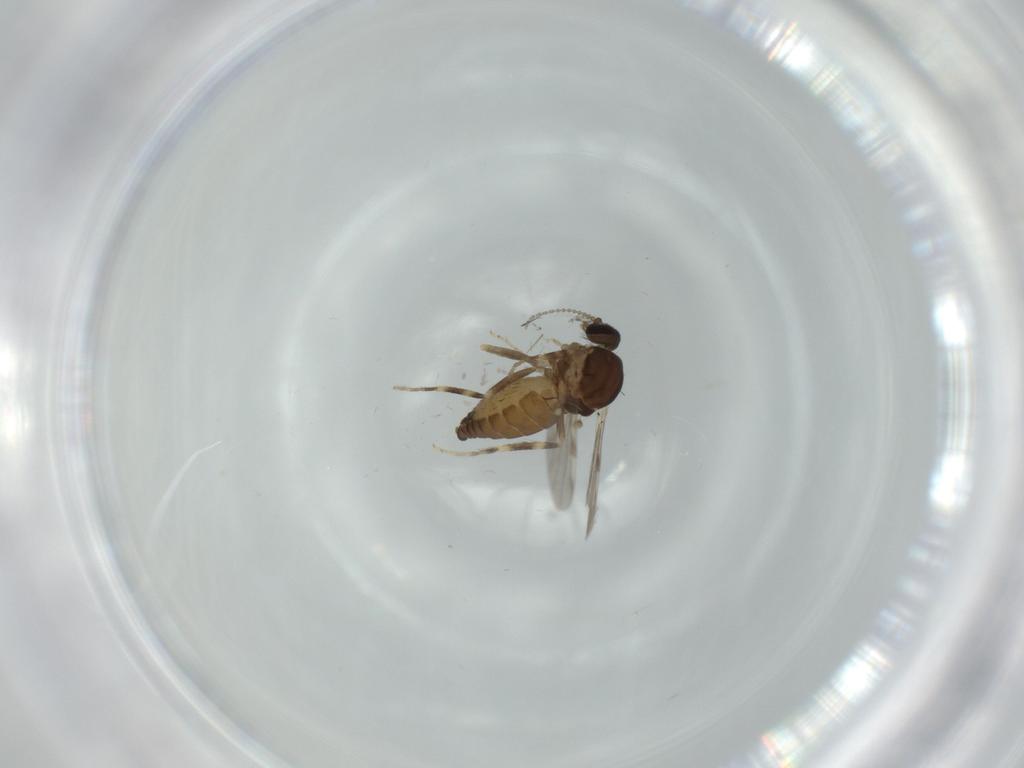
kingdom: Animalia
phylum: Arthropoda
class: Insecta
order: Diptera
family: Ceratopogonidae
